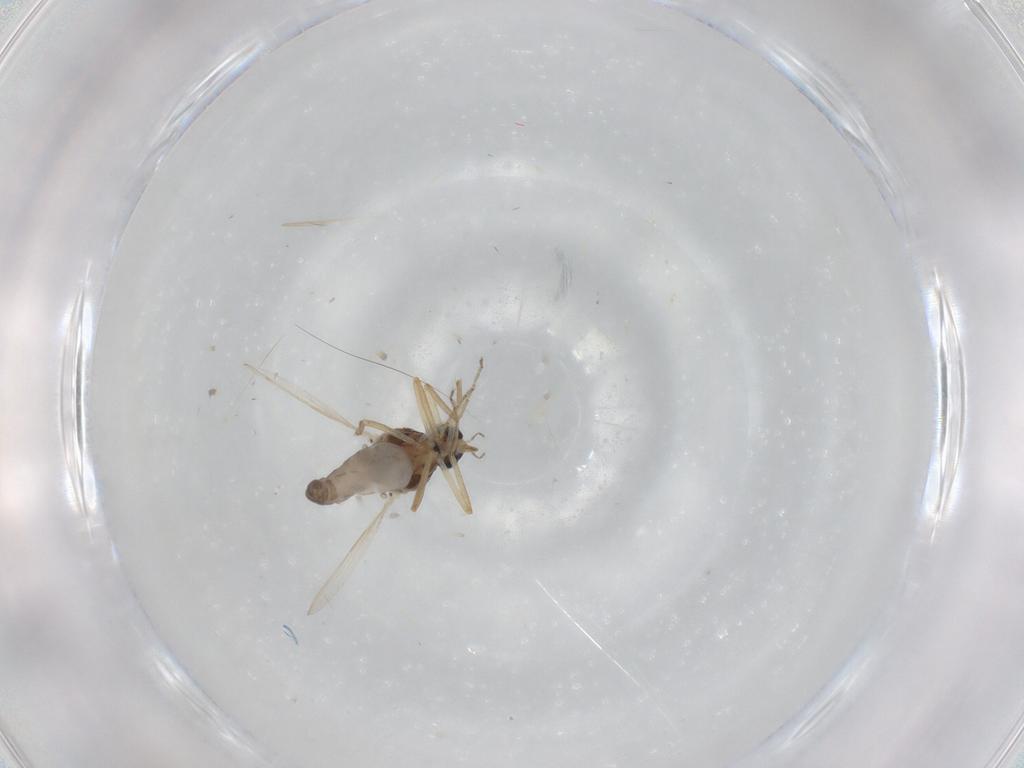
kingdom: Animalia
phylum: Arthropoda
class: Insecta
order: Diptera
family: Ceratopogonidae
